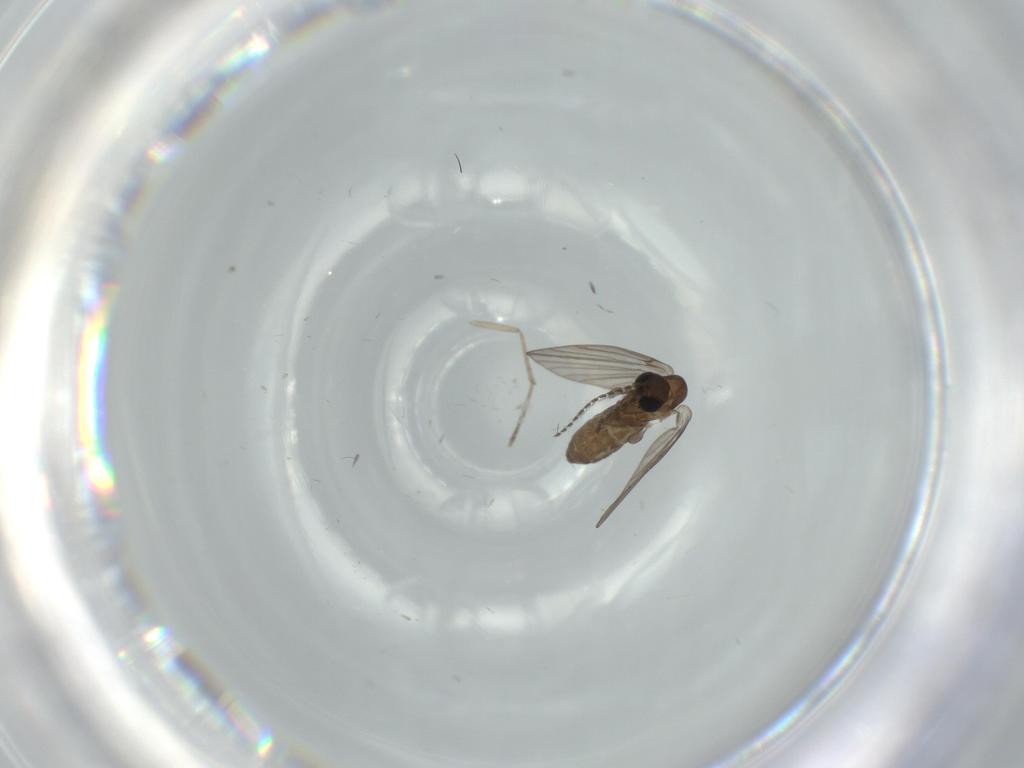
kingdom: Animalia
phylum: Arthropoda
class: Insecta
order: Diptera
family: Psychodidae
